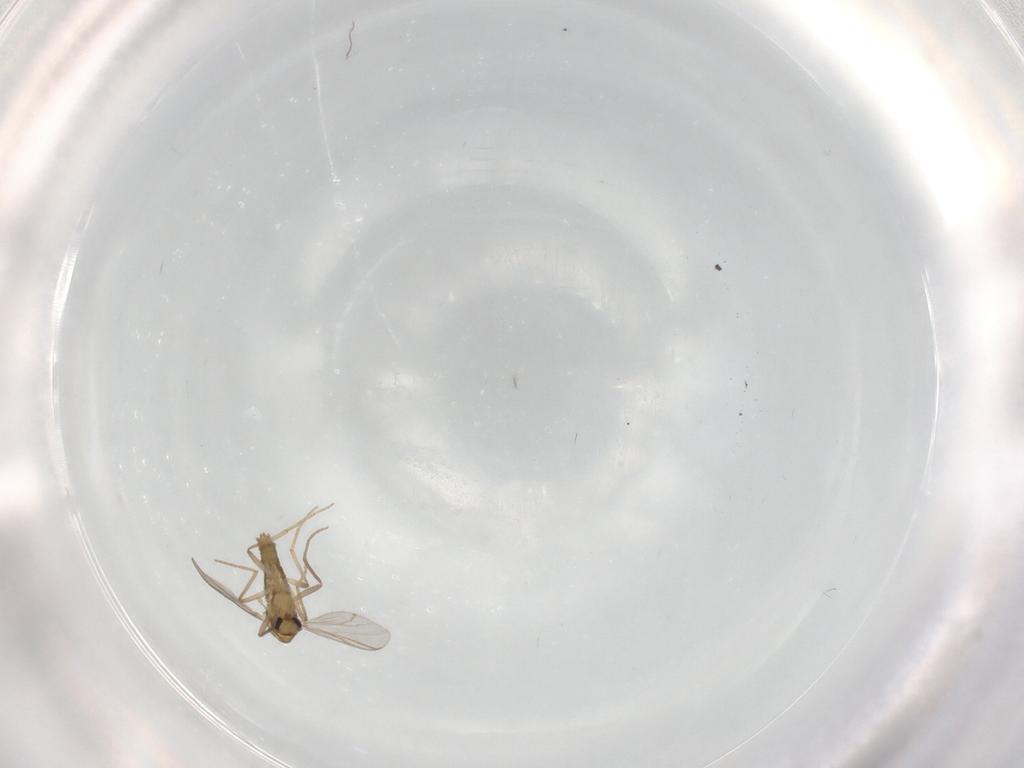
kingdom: Animalia
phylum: Arthropoda
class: Insecta
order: Diptera
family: Chironomidae
